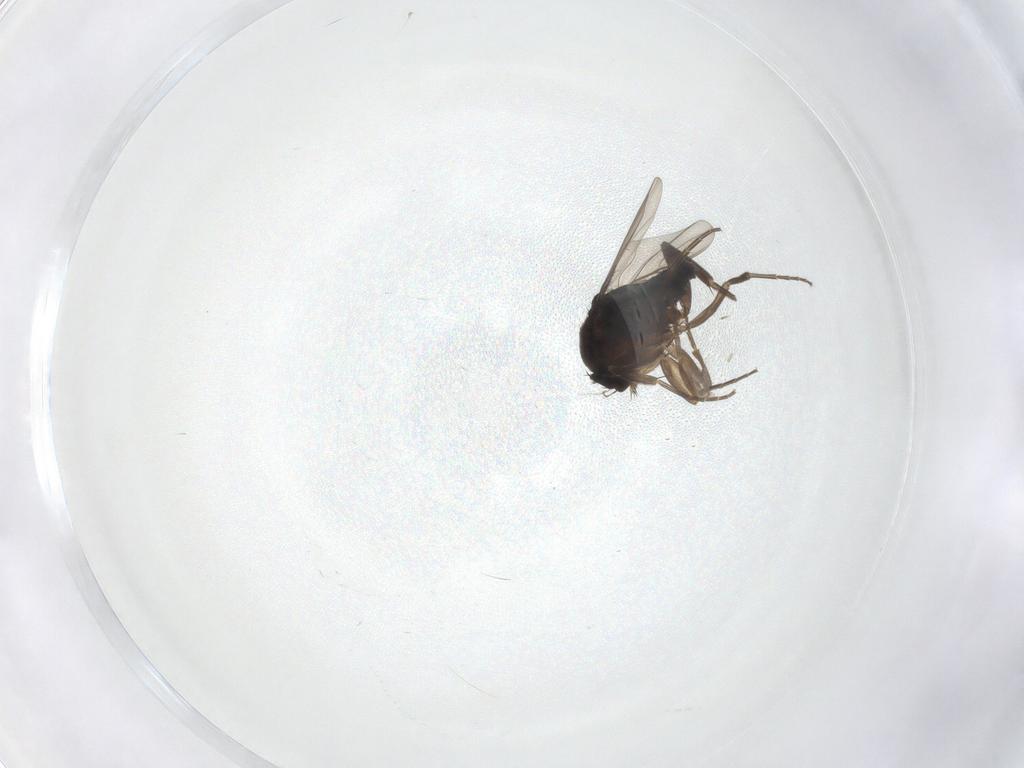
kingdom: Animalia
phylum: Arthropoda
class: Insecta
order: Diptera
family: Phoridae
